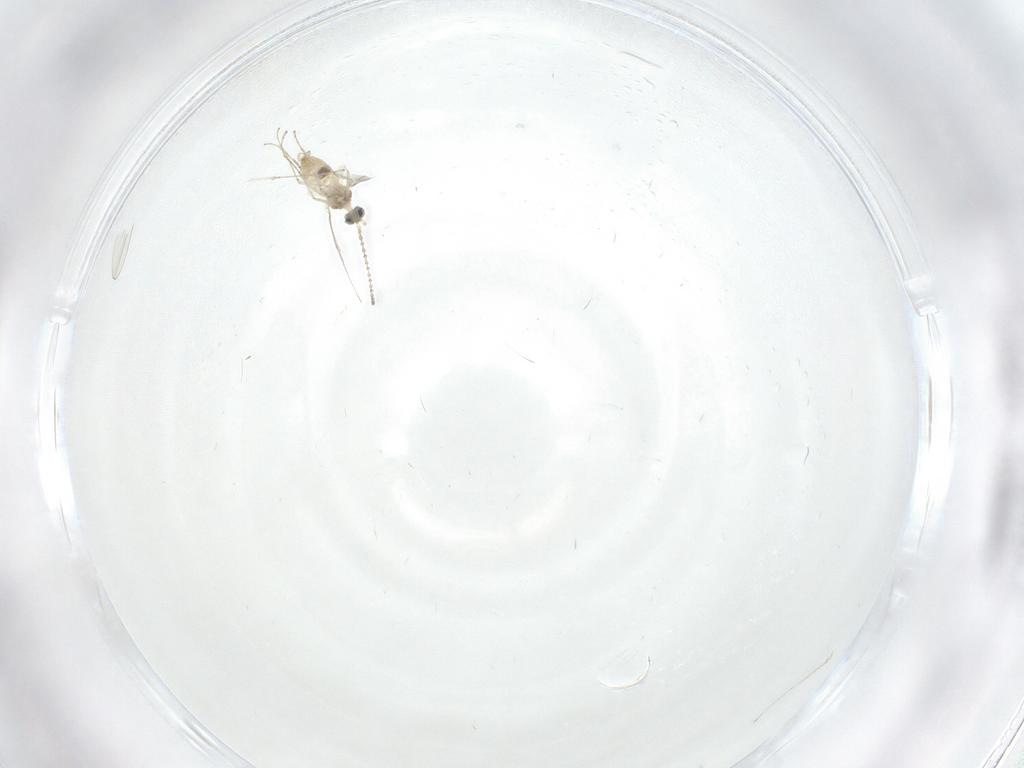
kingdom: Animalia
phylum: Arthropoda
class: Insecta
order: Diptera
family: Cecidomyiidae
